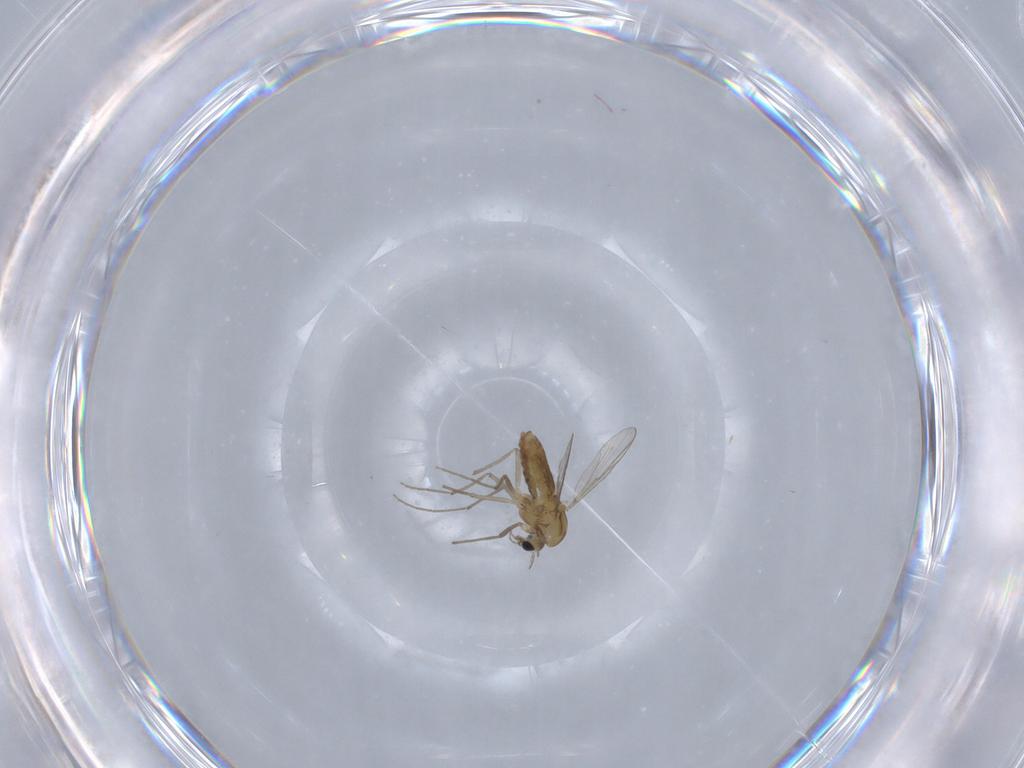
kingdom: Animalia
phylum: Arthropoda
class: Insecta
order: Diptera
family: Chironomidae
